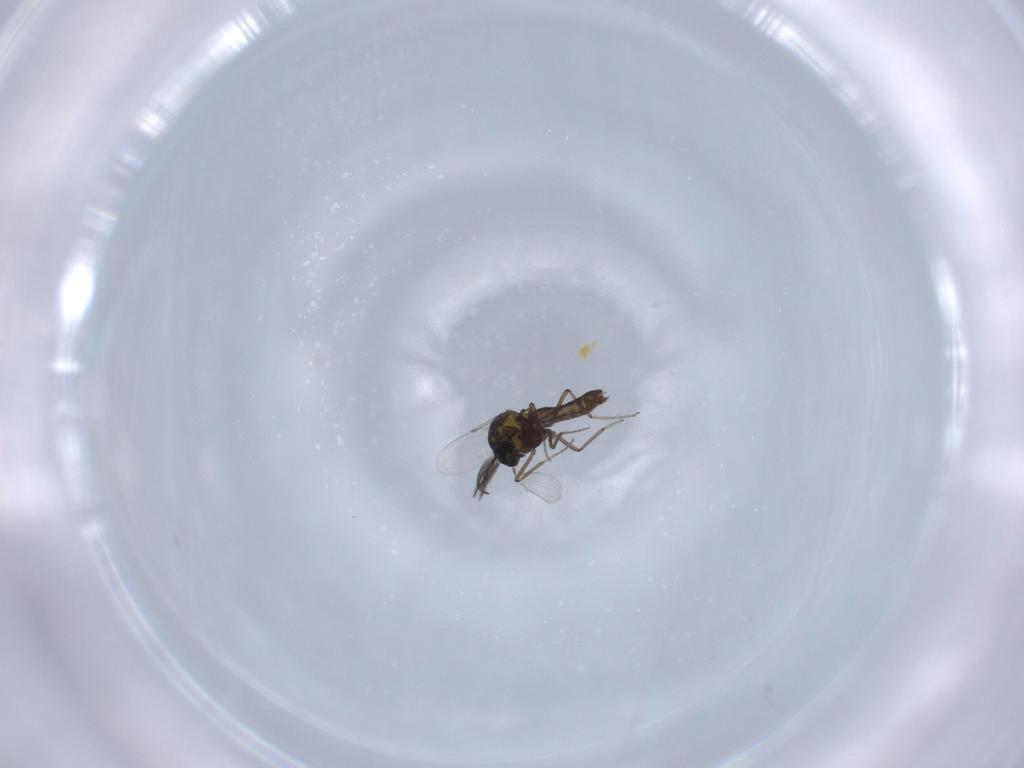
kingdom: Animalia
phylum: Arthropoda
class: Insecta
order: Diptera
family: Ceratopogonidae
